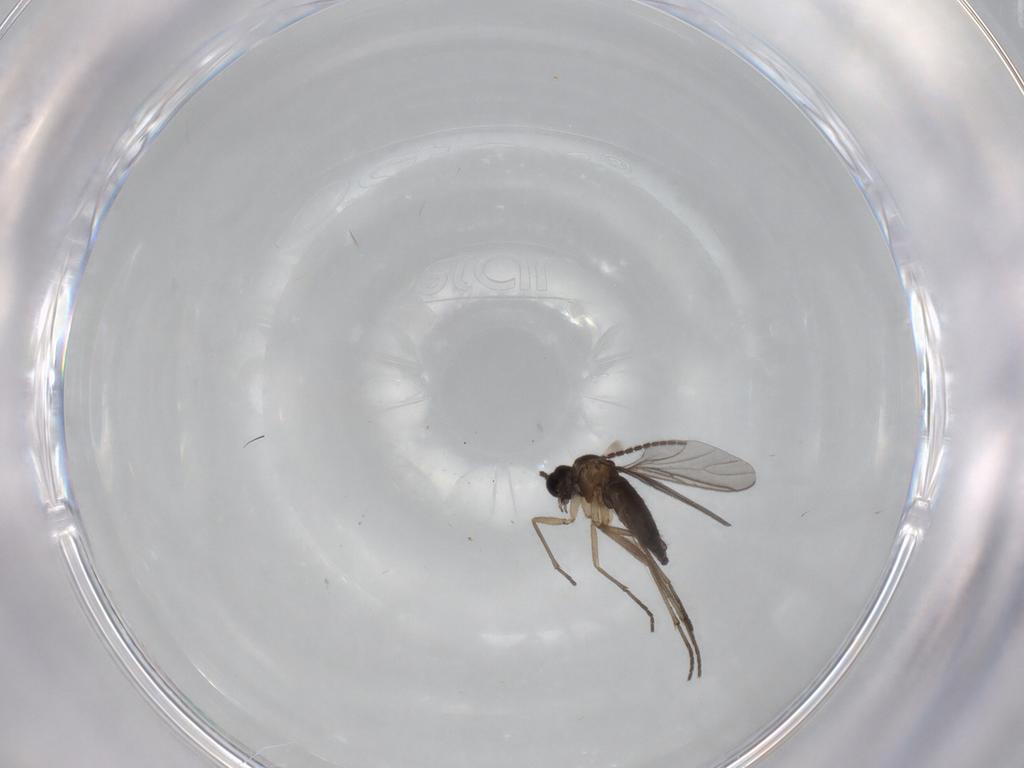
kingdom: Animalia
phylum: Arthropoda
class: Insecta
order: Diptera
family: Sciaridae
